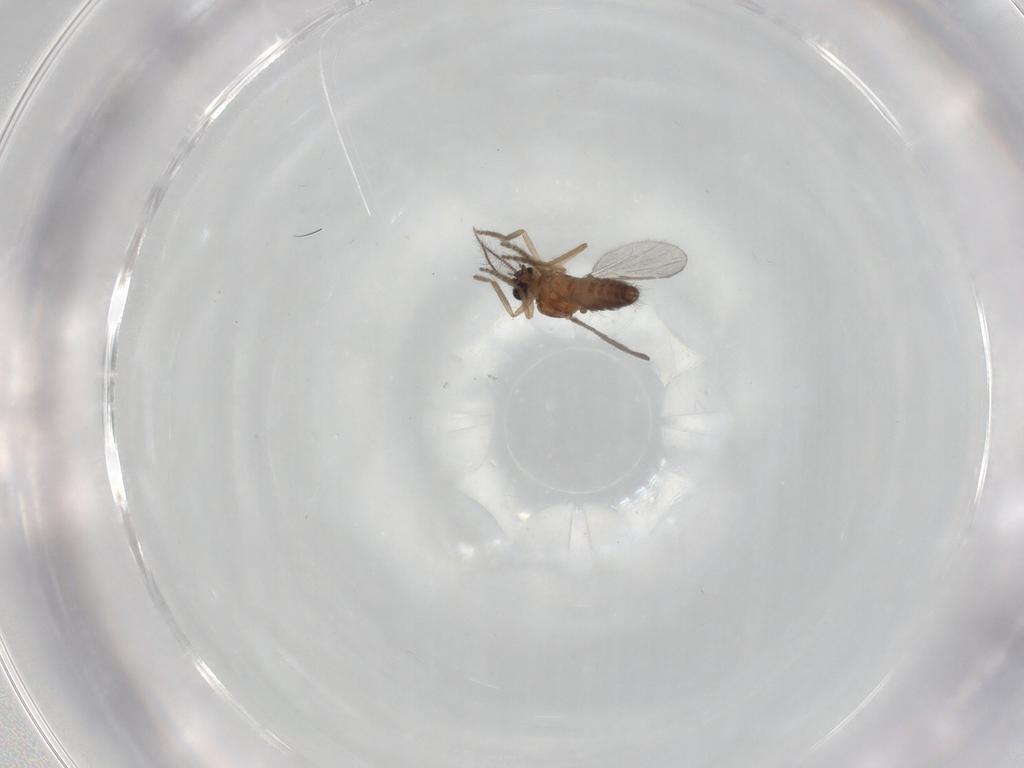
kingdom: Animalia
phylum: Arthropoda
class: Insecta
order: Diptera
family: Ceratopogonidae
